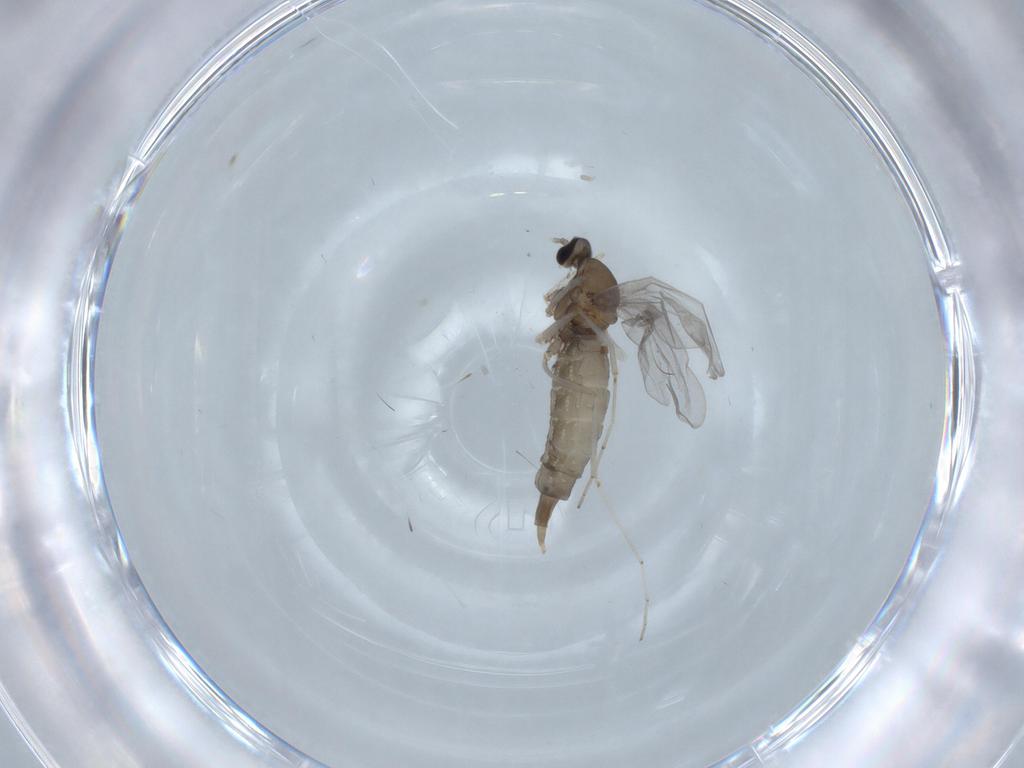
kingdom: Animalia
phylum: Arthropoda
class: Insecta
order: Diptera
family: Cecidomyiidae
